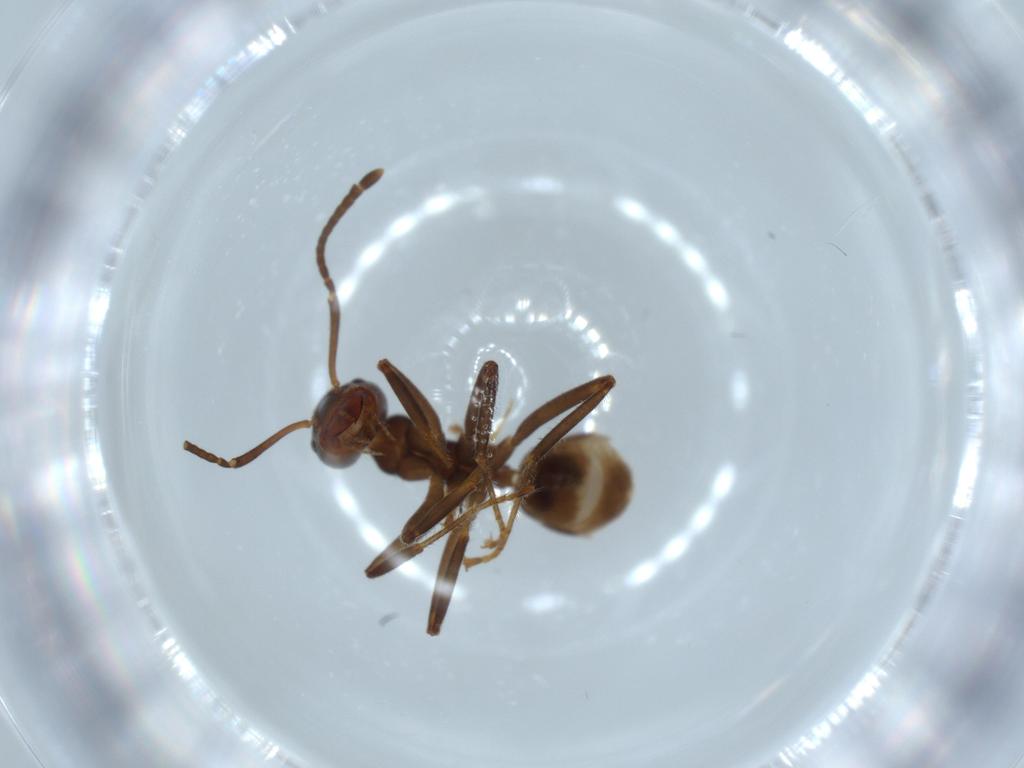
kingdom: Animalia
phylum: Arthropoda
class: Insecta
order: Hymenoptera
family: Formicidae
